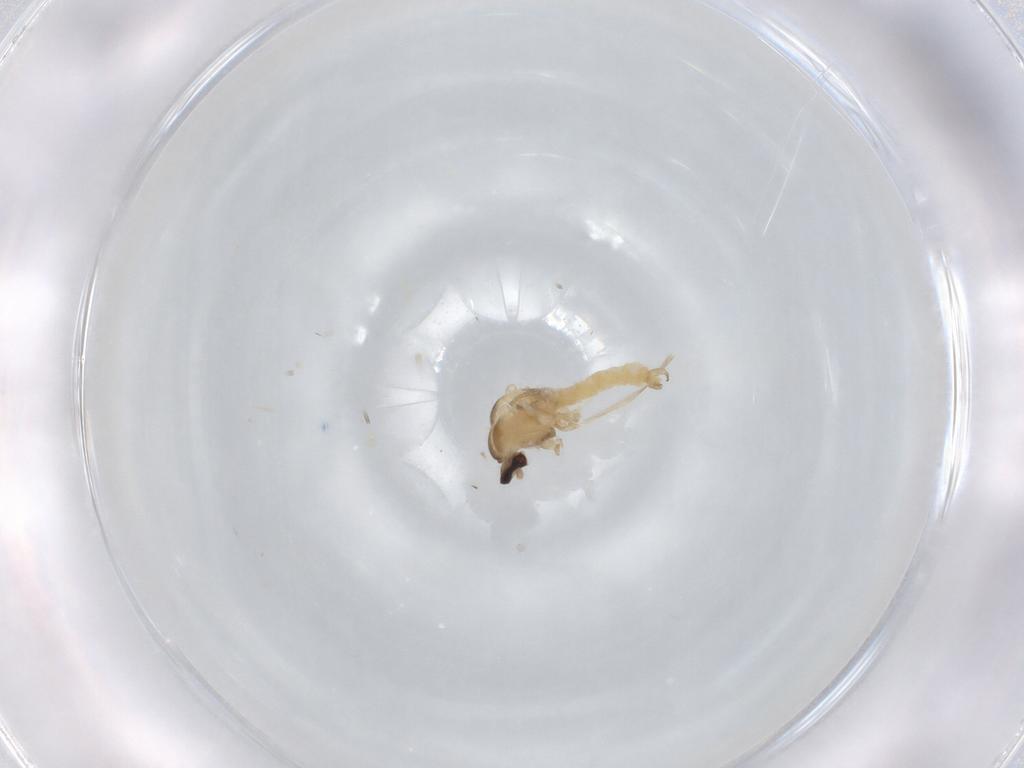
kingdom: Animalia
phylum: Arthropoda
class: Insecta
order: Diptera
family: Cecidomyiidae
